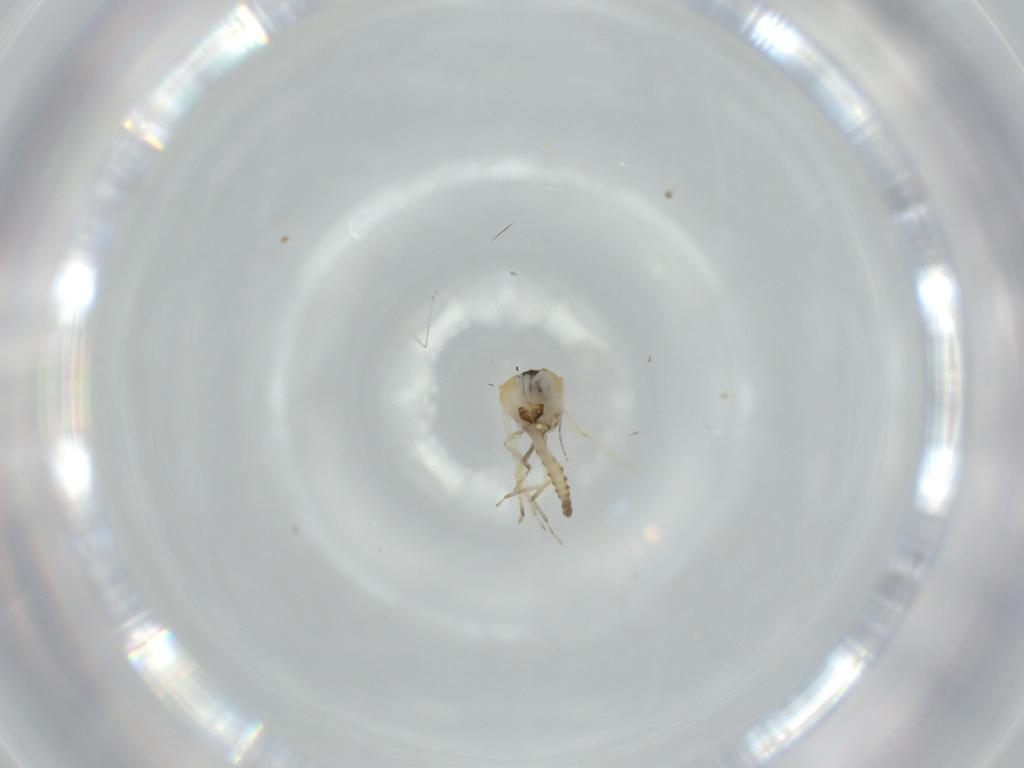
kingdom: Animalia
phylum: Arthropoda
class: Insecta
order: Diptera
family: Cecidomyiidae
